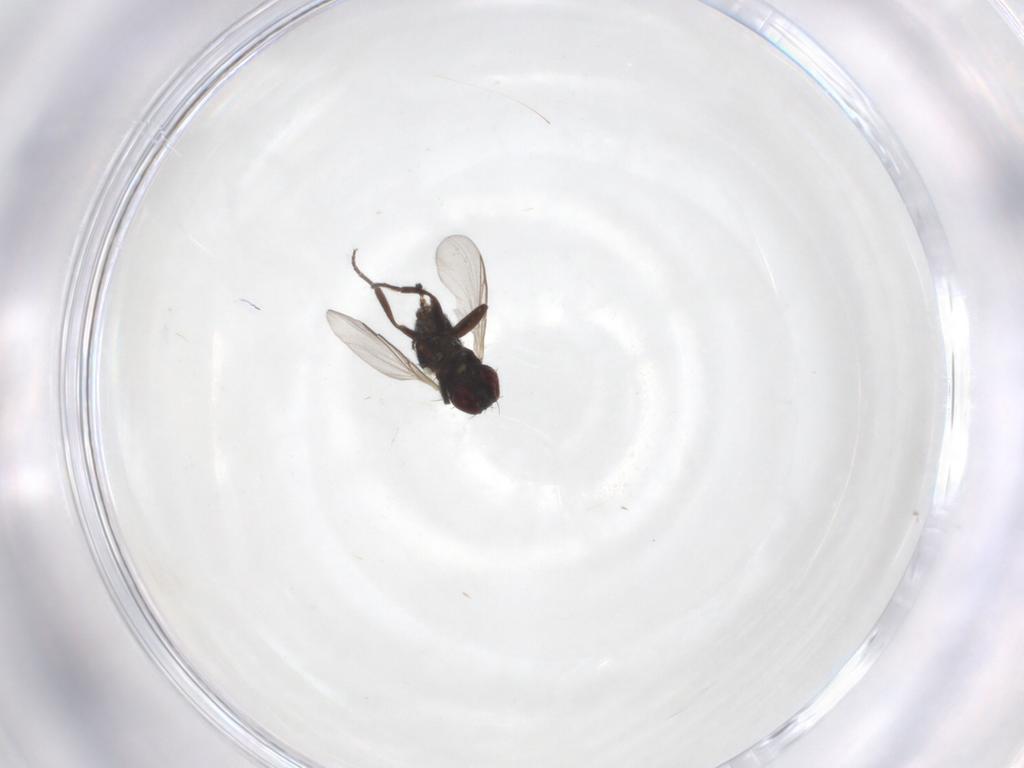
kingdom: Animalia
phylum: Arthropoda
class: Insecta
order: Diptera
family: Agromyzidae
